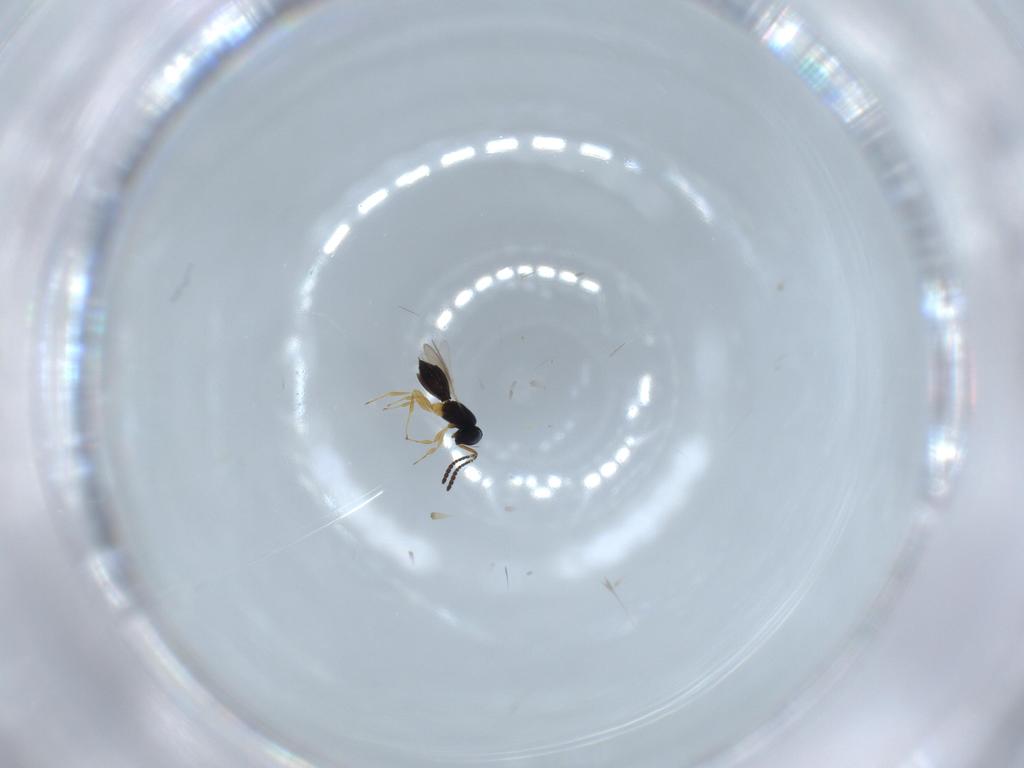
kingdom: Animalia
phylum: Arthropoda
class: Insecta
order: Hymenoptera
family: Scelionidae
